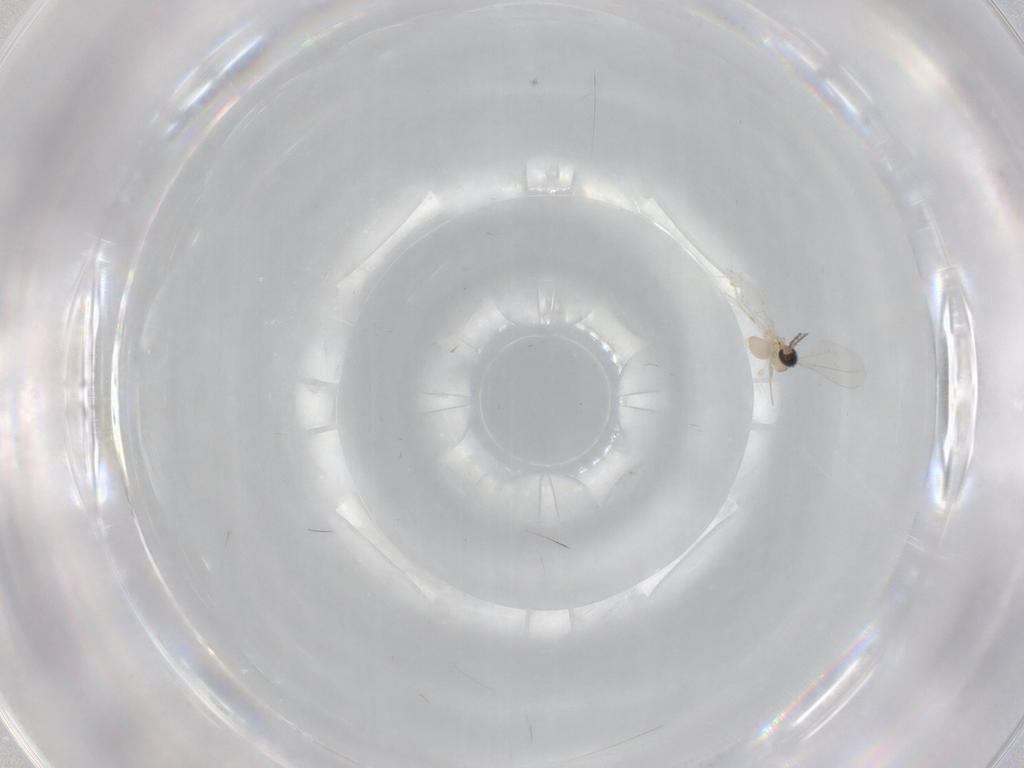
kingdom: Animalia
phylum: Arthropoda
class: Insecta
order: Diptera
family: Cecidomyiidae
